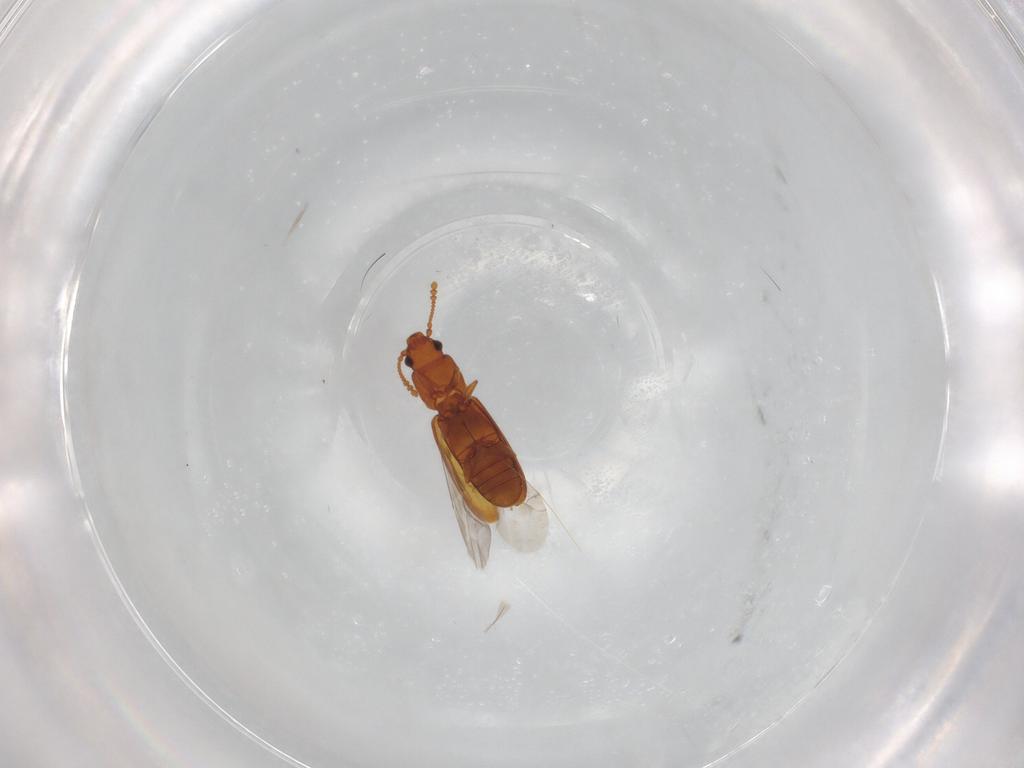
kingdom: Animalia
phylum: Arthropoda
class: Insecta
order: Coleoptera
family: Laemophloeidae
